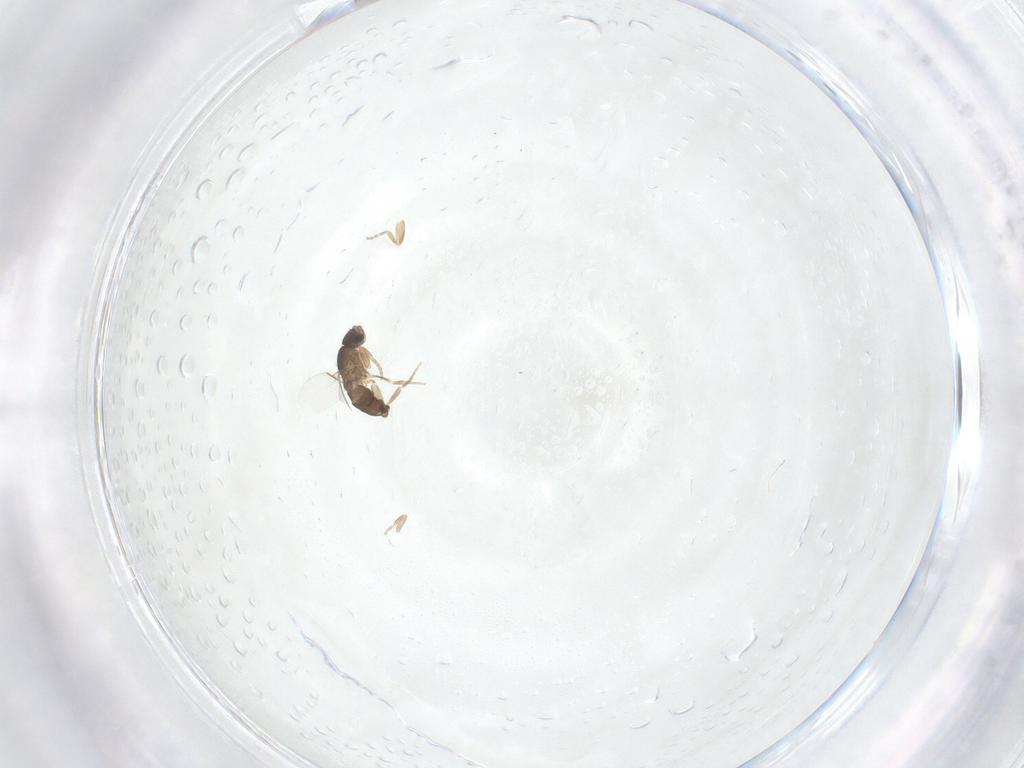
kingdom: Animalia
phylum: Arthropoda
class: Insecta
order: Diptera
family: Phoridae
